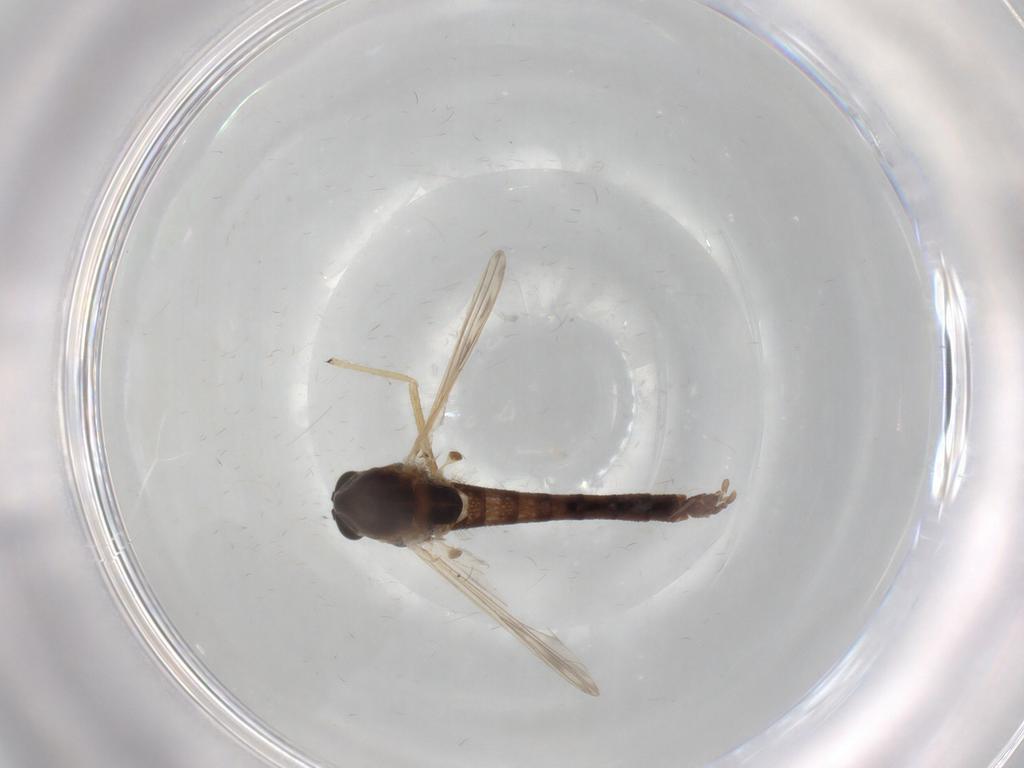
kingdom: Animalia
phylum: Arthropoda
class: Insecta
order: Diptera
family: Chironomidae
